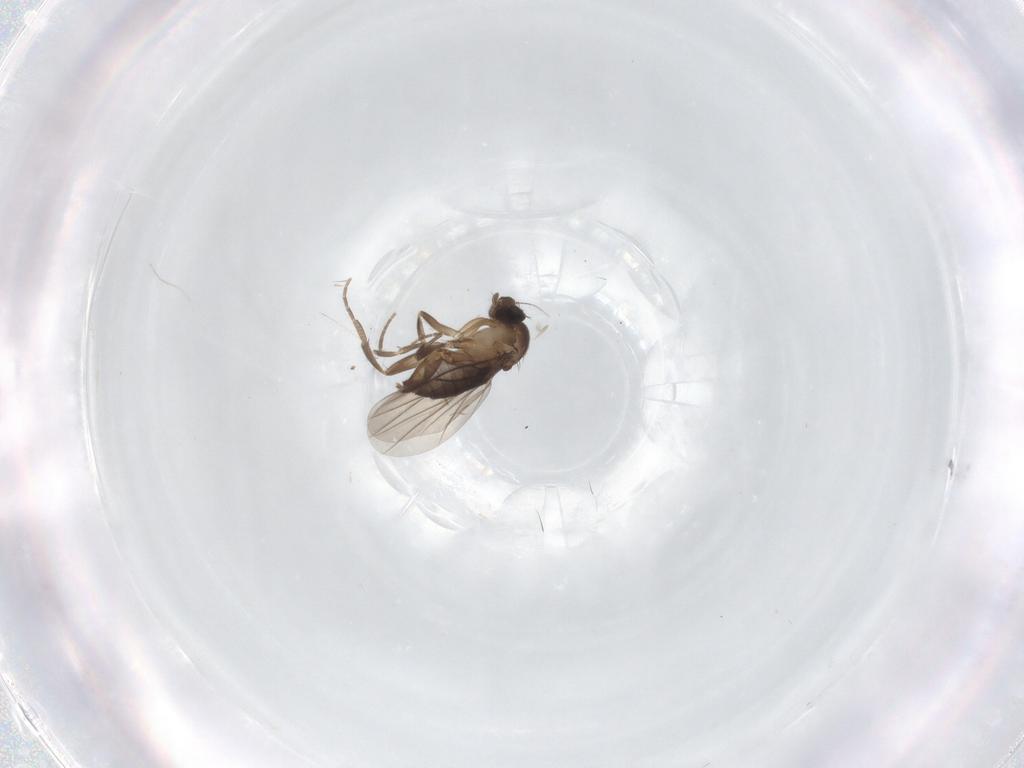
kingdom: Animalia
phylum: Arthropoda
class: Insecta
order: Diptera
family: Phoridae
